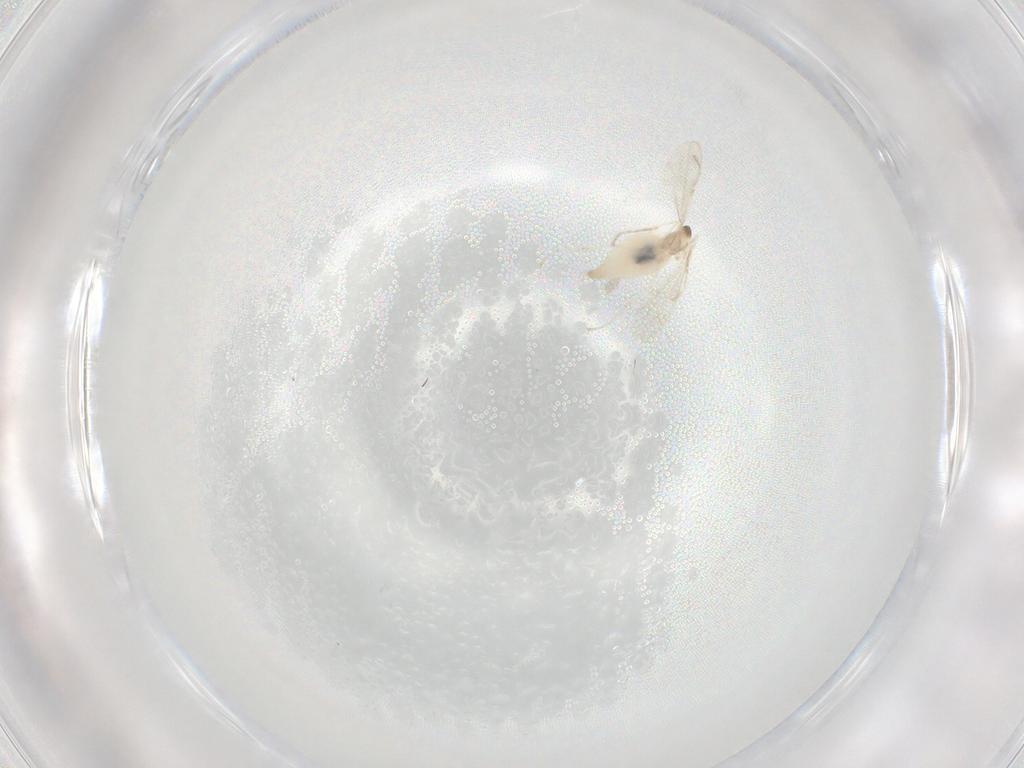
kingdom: Animalia
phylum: Arthropoda
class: Insecta
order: Diptera
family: Cecidomyiidae
